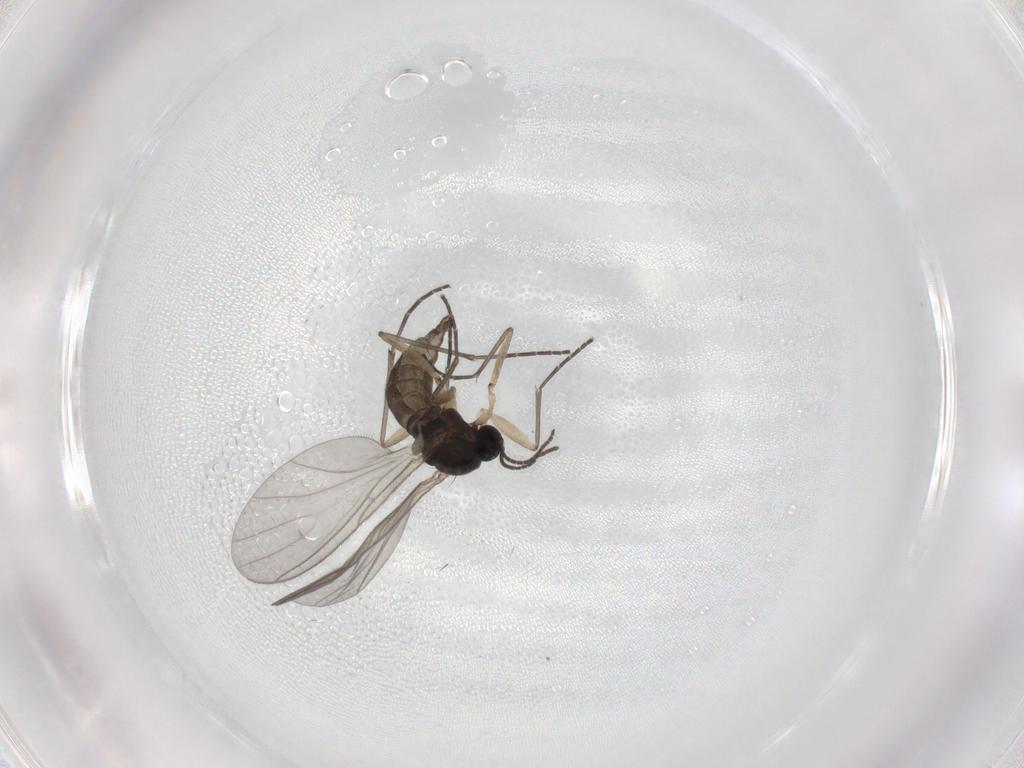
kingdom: Animalia
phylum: Arthropoda
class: Insecta
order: Diptera
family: Sciaridae
